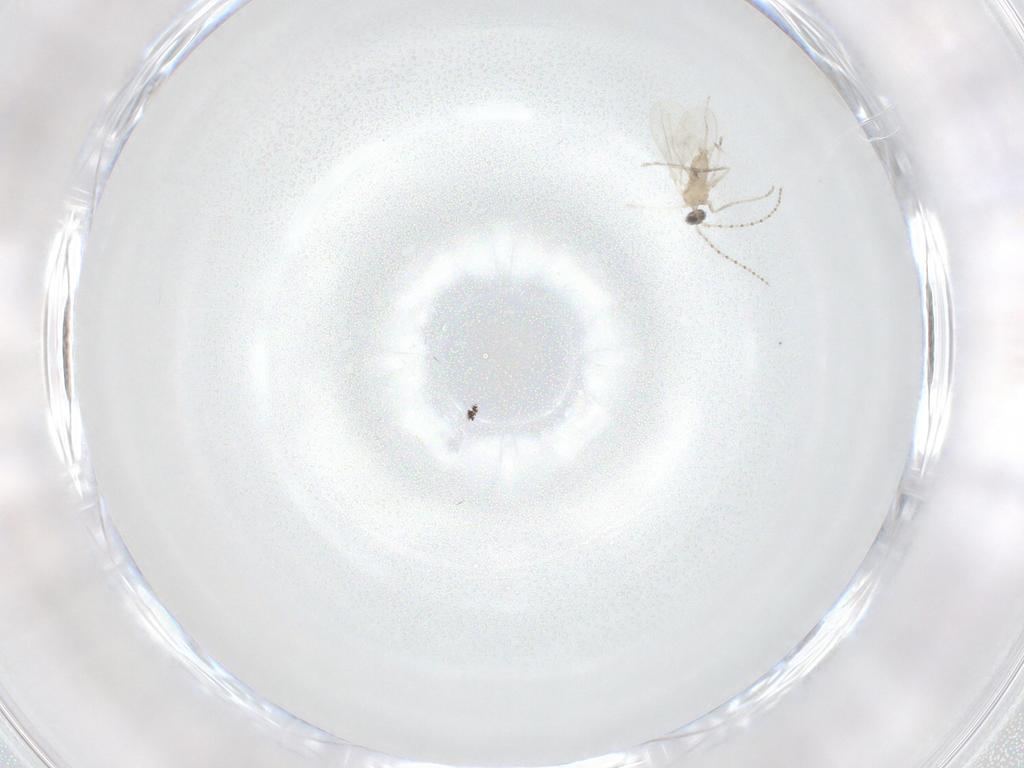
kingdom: Animalia
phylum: Arthropoda
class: Insecta
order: Diptera
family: Cecidomyiidae
